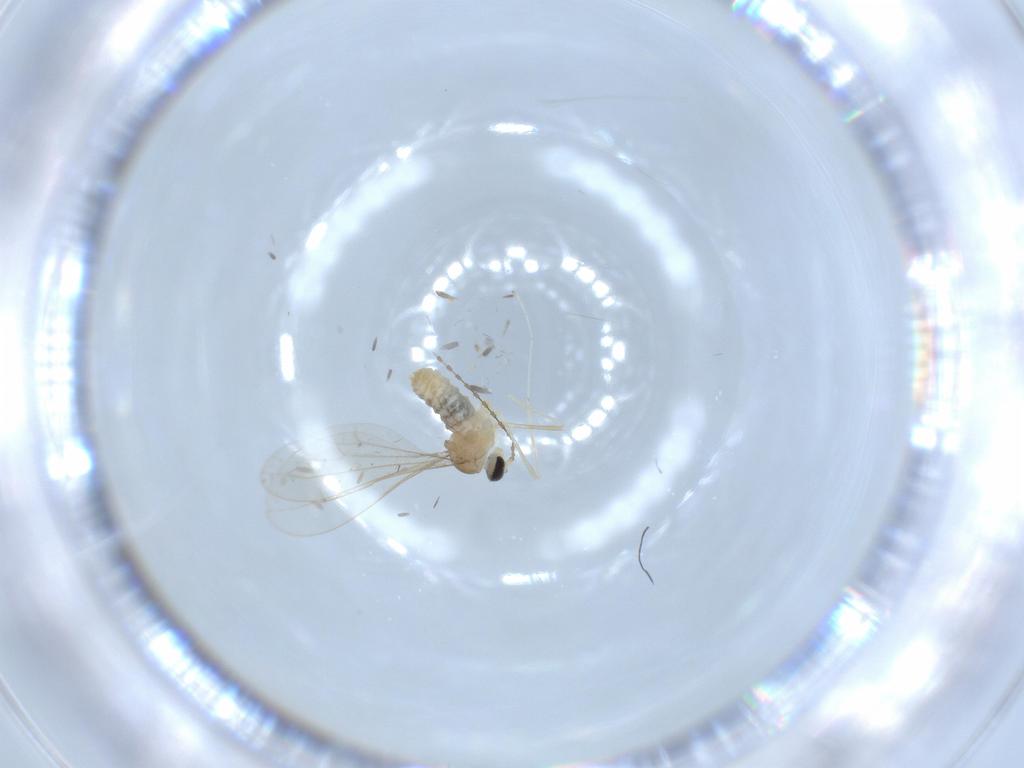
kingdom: Animalia
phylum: Arthropoda
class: Insecta
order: Diptera
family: Cecidomyiidae
